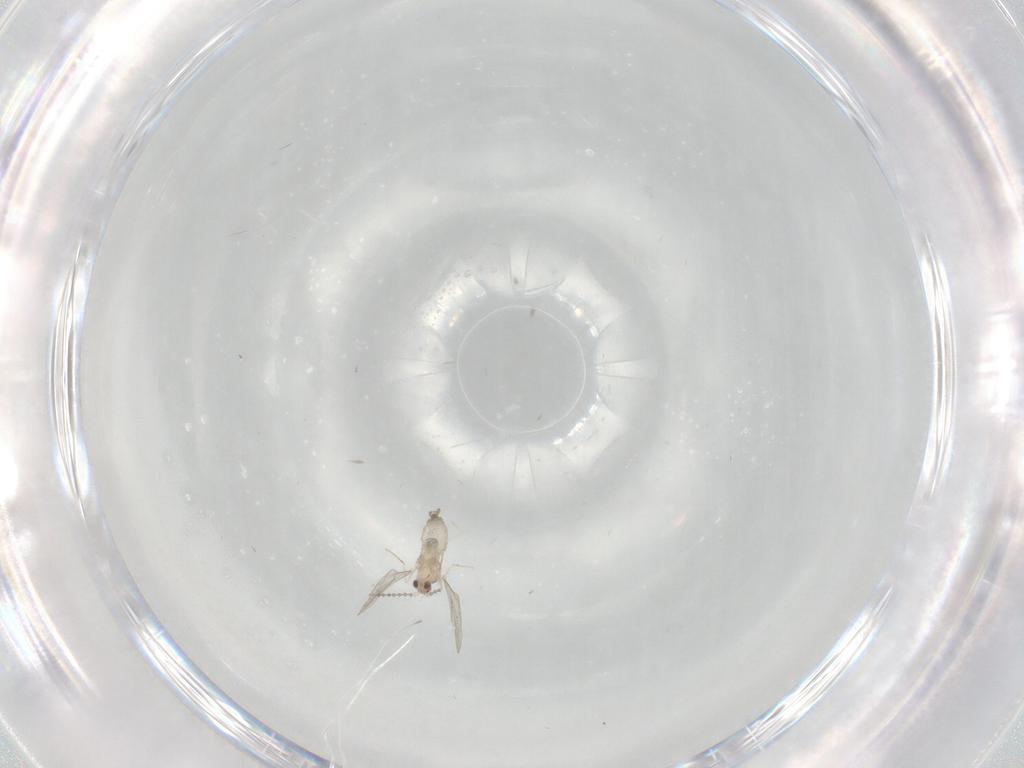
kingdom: Animalia
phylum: Arthropoda
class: Insecta
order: Diptera
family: Cecidomyiidae
